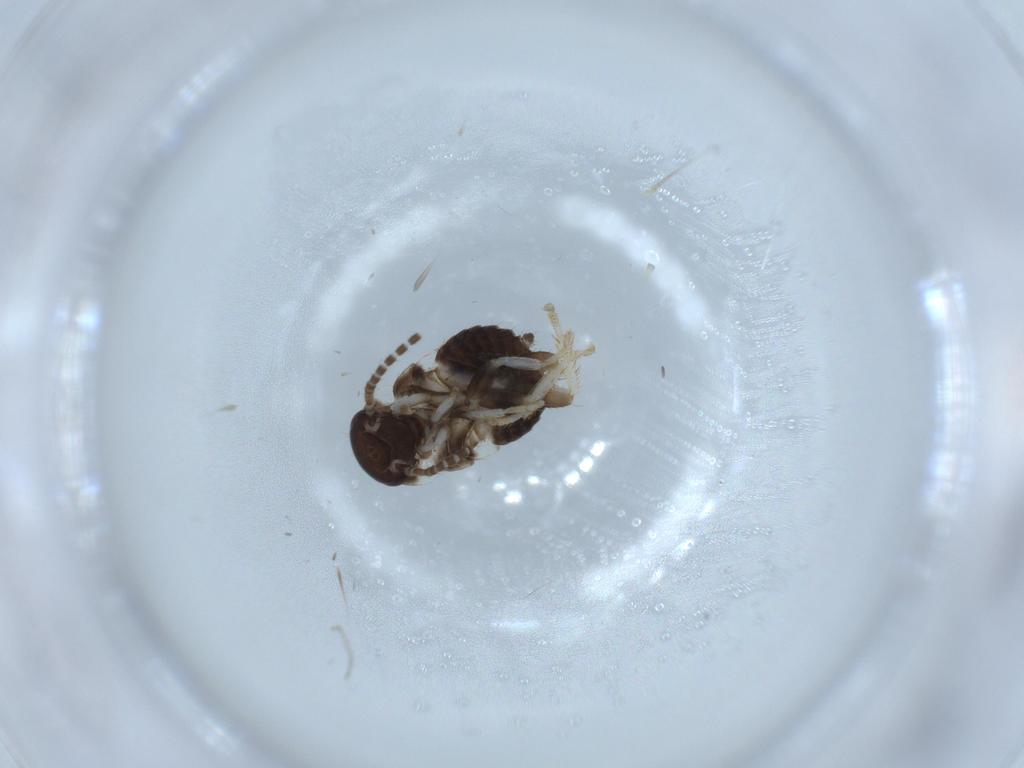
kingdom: Animalia
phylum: Arthropoda
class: Insecta
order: Blattodea
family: Ectobiidae
